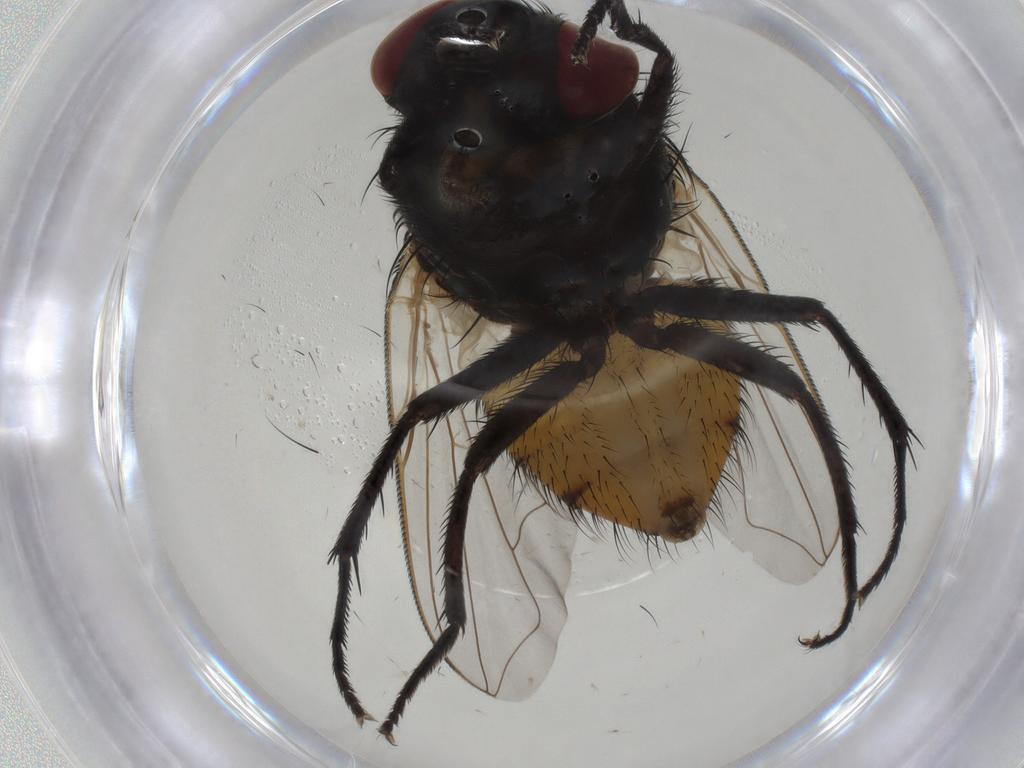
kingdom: Animalia
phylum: Arthropoda
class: Insecta
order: Diptera
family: Muscidae
